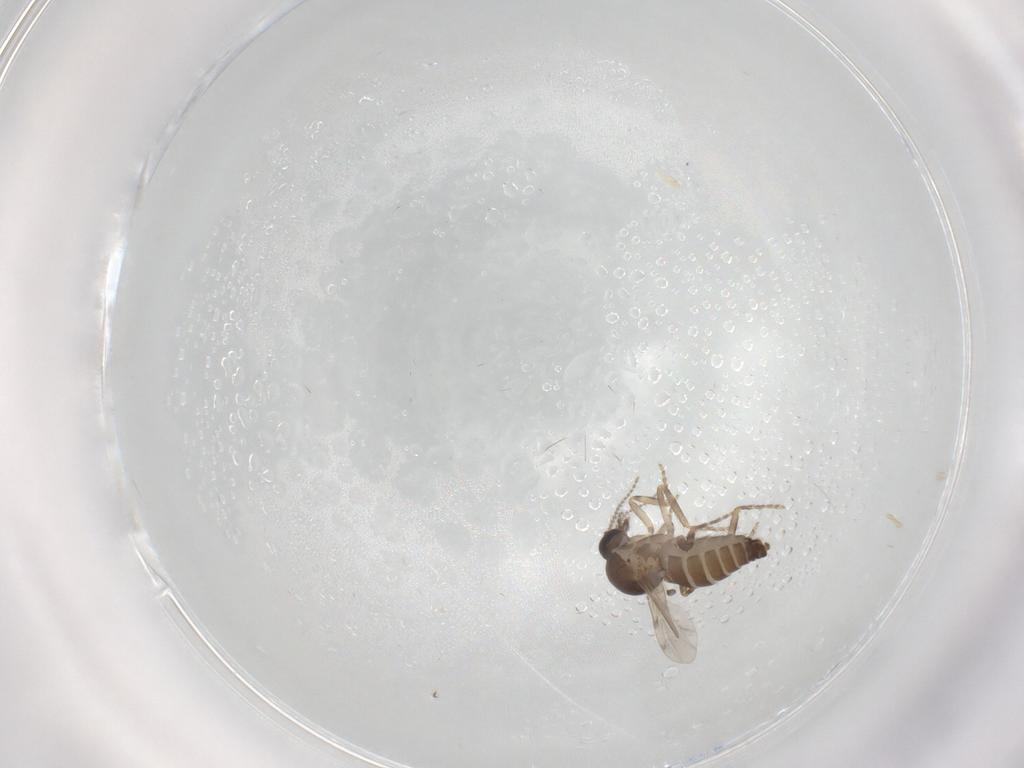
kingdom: Animalia
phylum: Arthropoda
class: Insecta
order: Diptera
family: Ceratopogonidae
